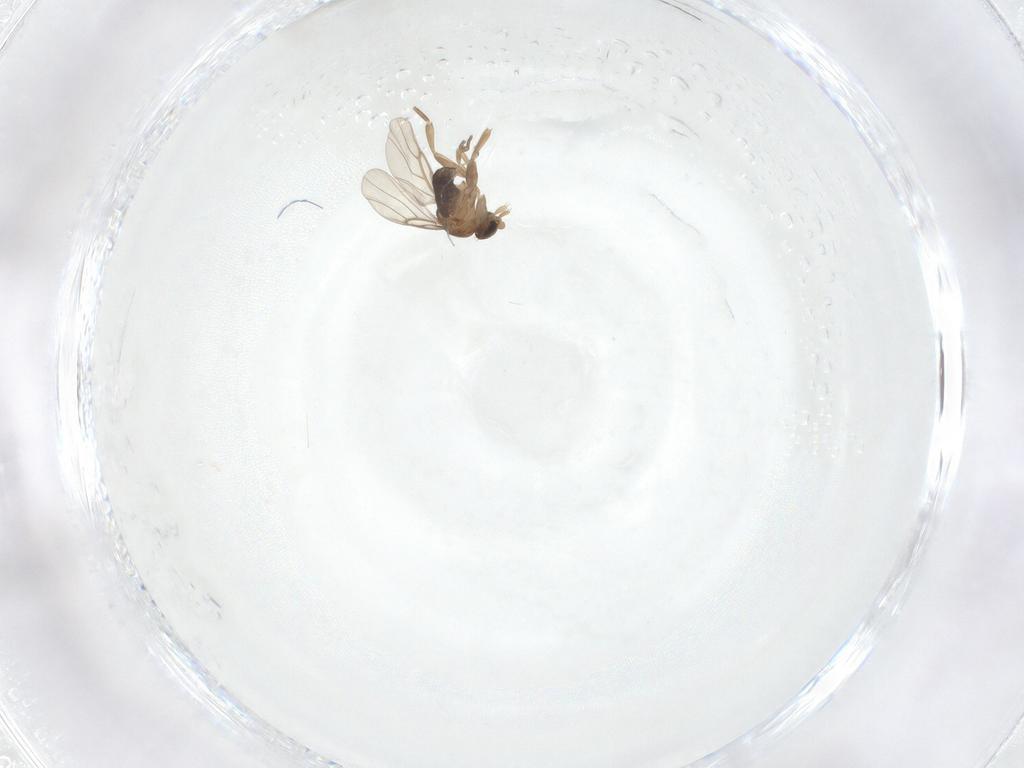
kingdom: Animalia
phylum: Arthropoda
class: Insecta
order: Diptera
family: Phoridae
